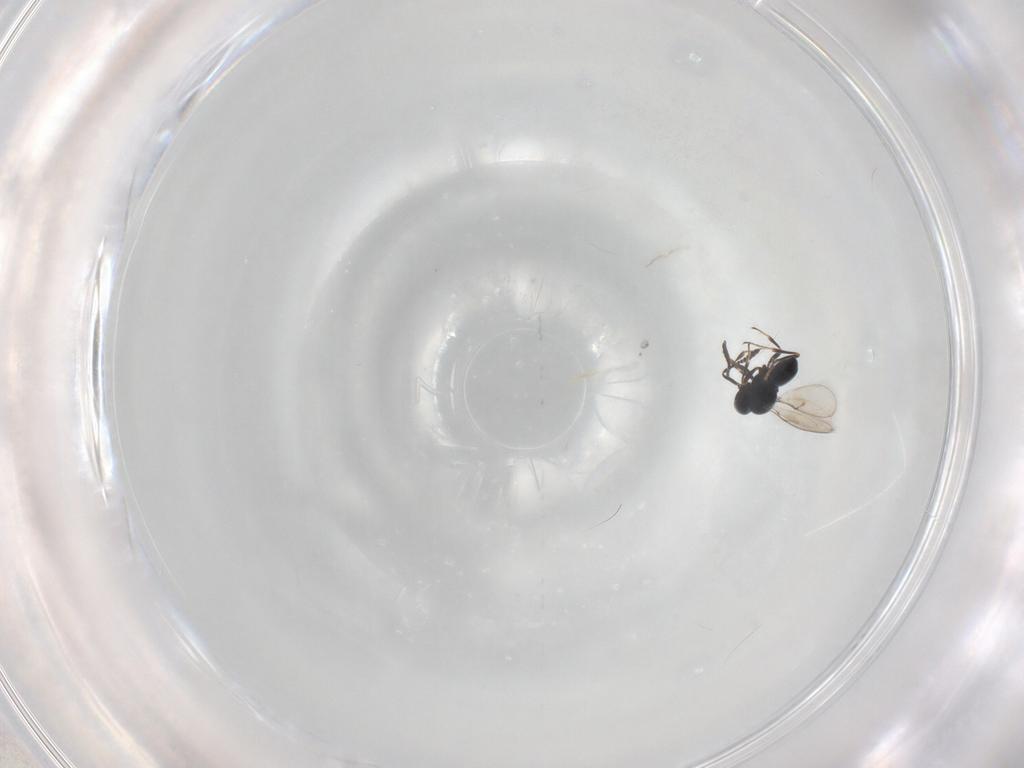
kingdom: Animalia
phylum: Arthropoda
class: Insecta
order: Hymenoptera
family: Scelionidae
